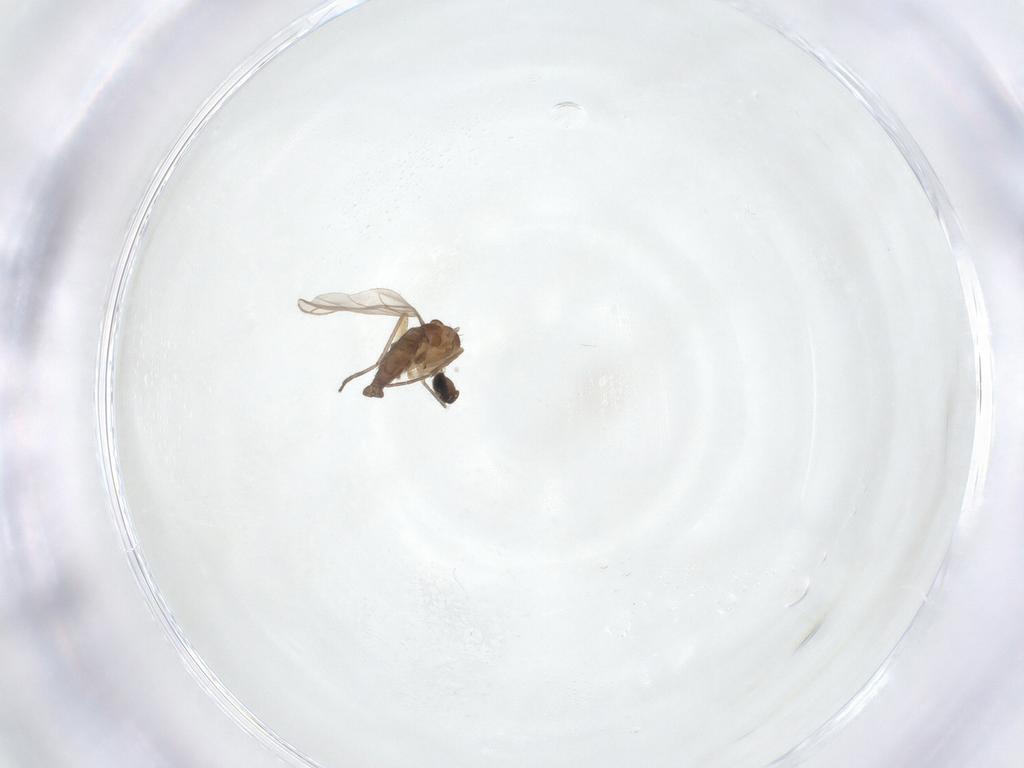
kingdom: Animalia
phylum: Arthropoda
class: Insecta
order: Diptera
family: Sciaridae
